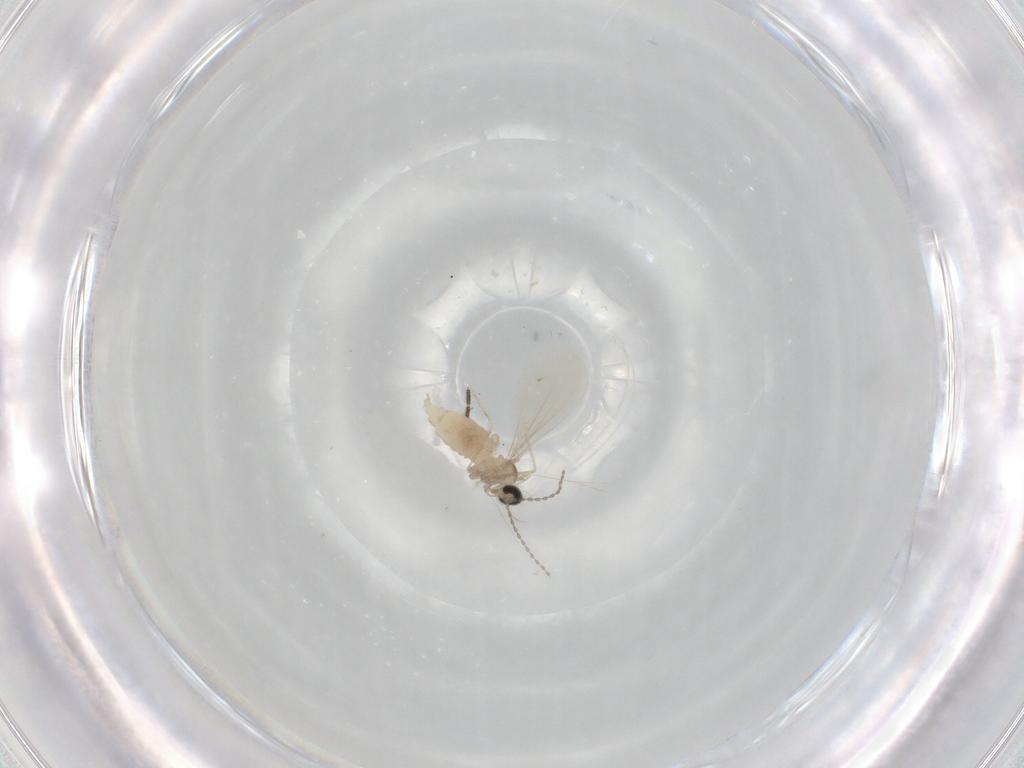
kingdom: Animalia
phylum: Arthropoda
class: Insecta
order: Diptera
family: Cecidomyiidae
